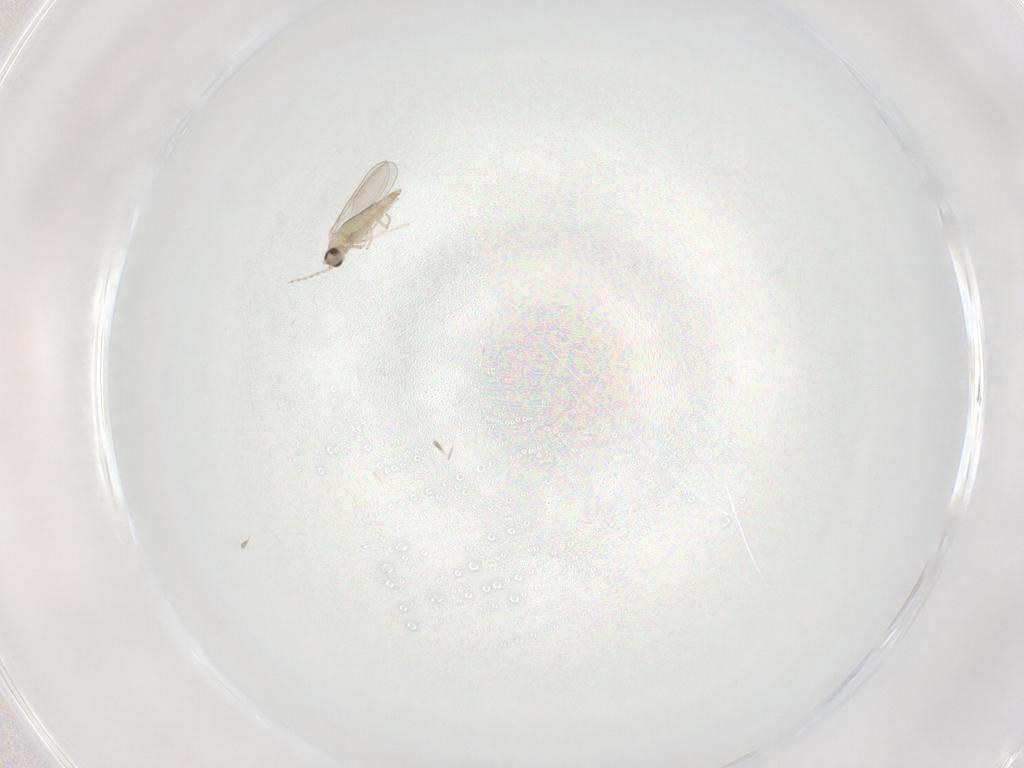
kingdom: Animalia
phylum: Arthropoda
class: Insecta
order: Diptera
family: Cecidomyiidae
